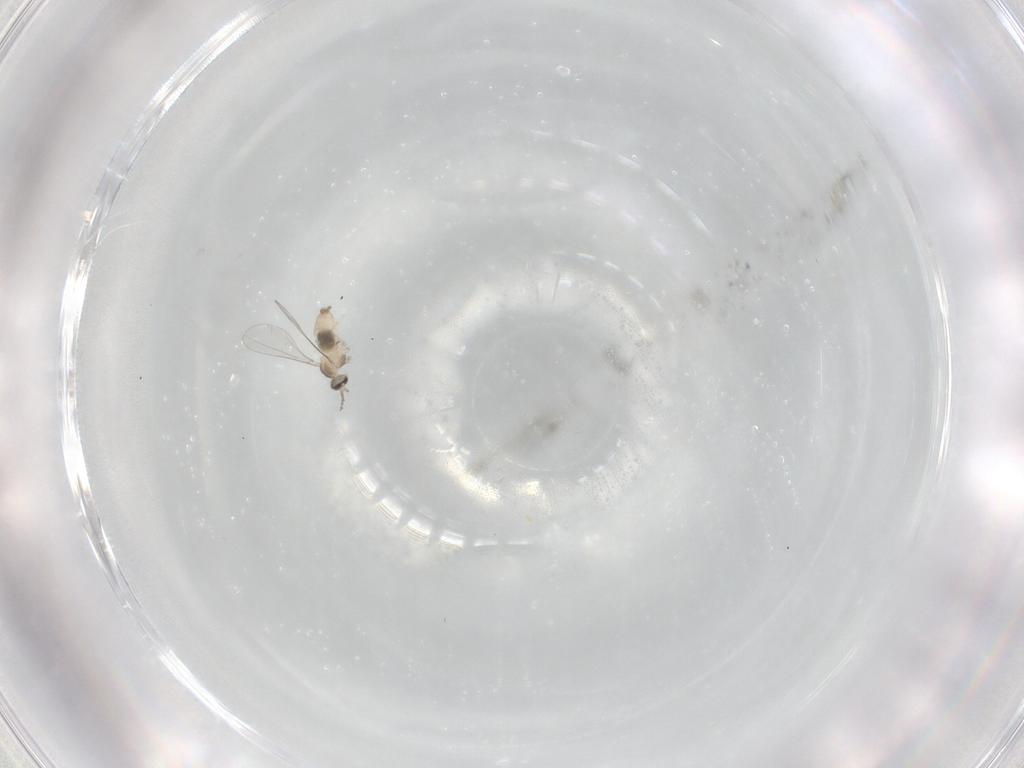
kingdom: Animalia
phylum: Arthropoda
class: Insecta
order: Diptera
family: Cecidomyiidae
